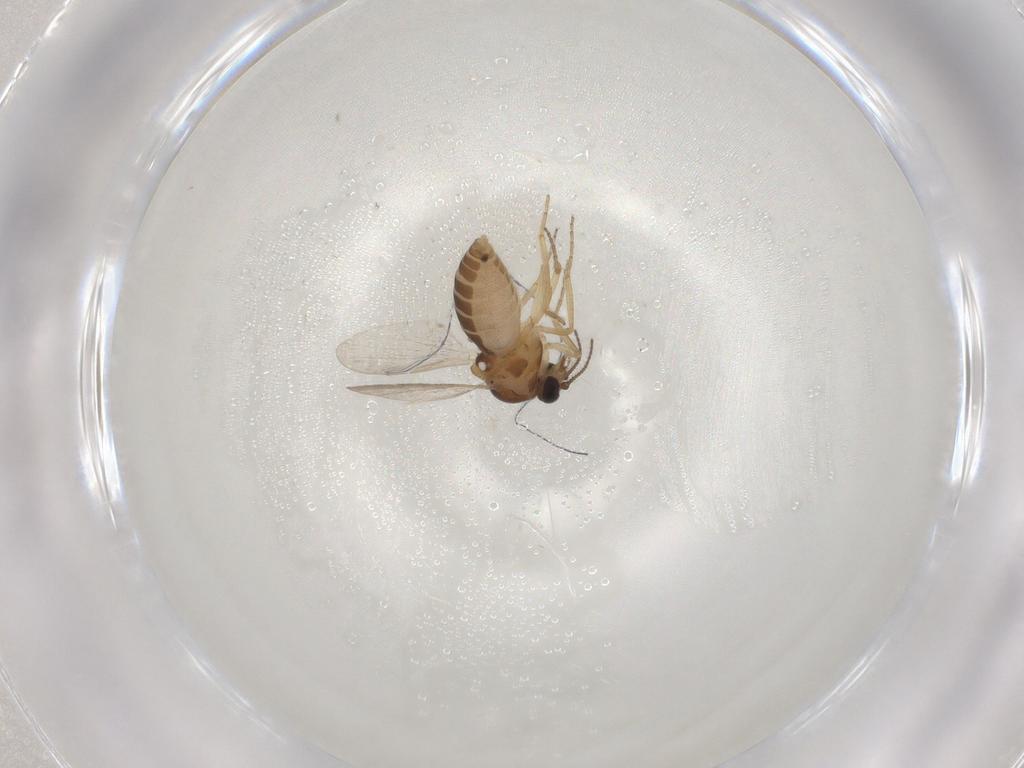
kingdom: Animalia
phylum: Arthropoda
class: Insecta
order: Diptera
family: Ceratopogonidae
